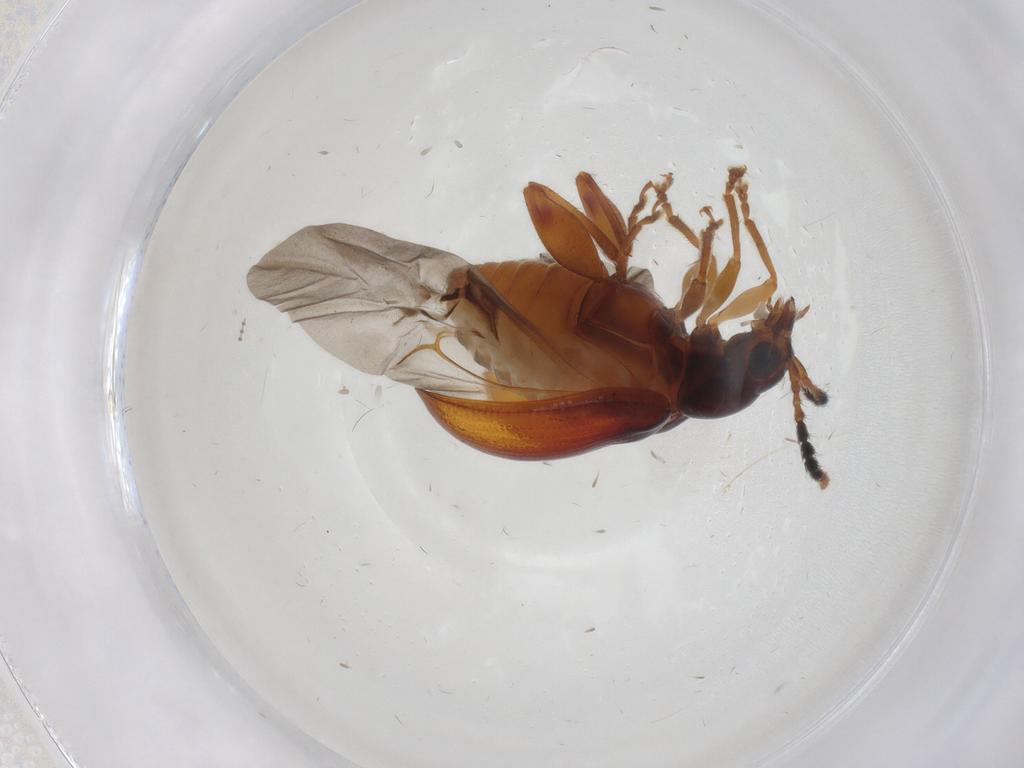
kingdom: Animalia
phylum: Arthropoda
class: Insecta
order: Coleoptera
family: Chrysomelidae
